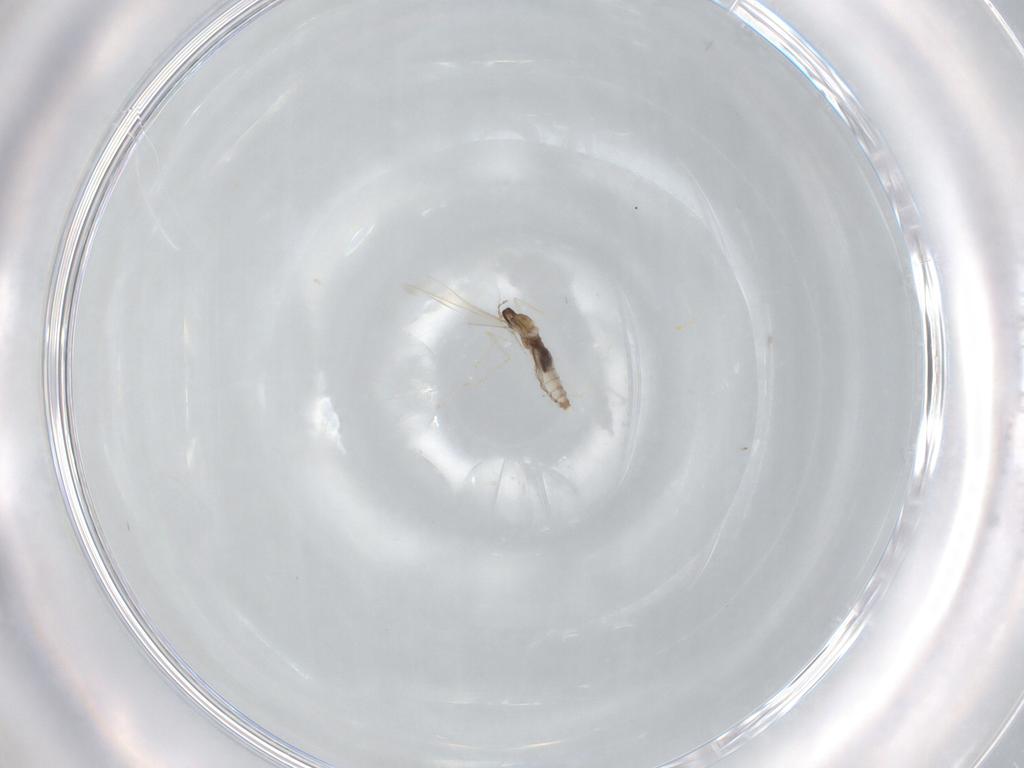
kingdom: Animalia
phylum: Arthropoda
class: Insecta
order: Diptera
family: Cecidomyiidae
